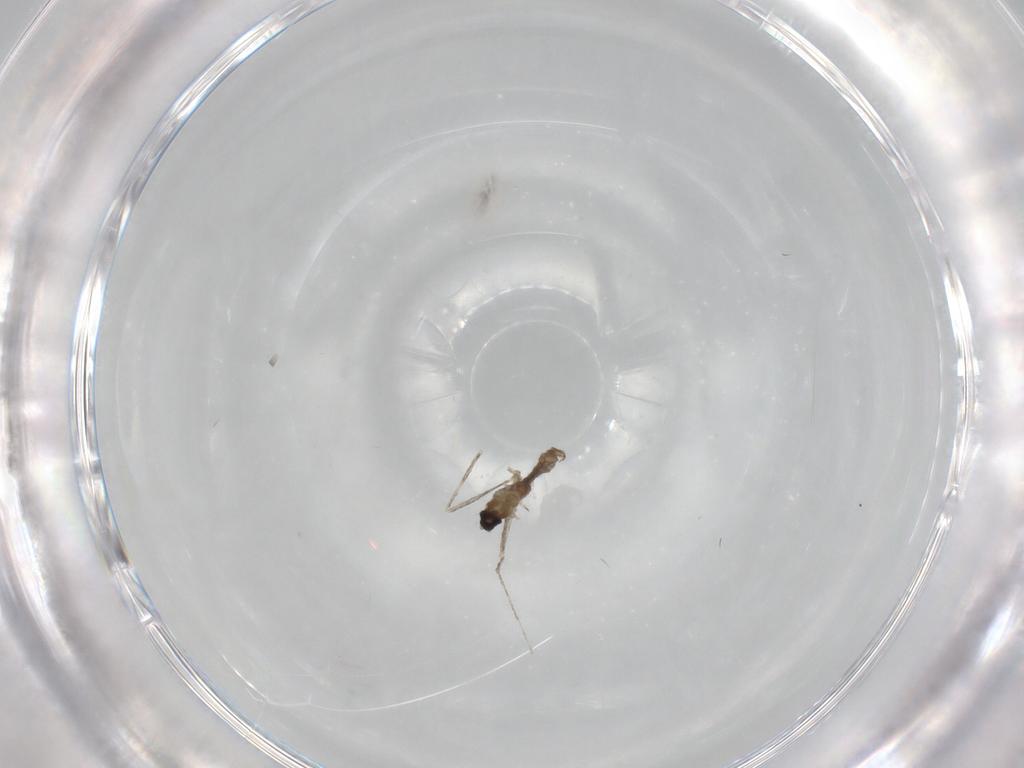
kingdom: Animalia
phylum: Arthropoda
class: Insecta
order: Diptera
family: Cecidomyiidae
